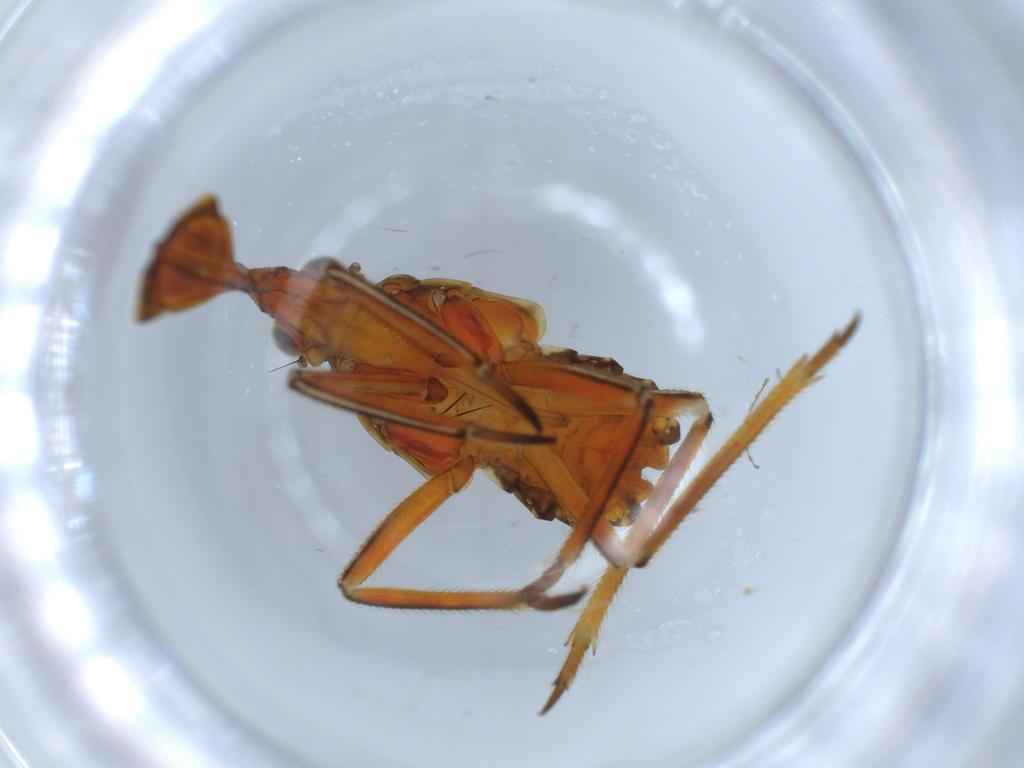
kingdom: Animalia
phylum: Arthropoda
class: Insecta
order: Hemiptera
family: Fulgoridae
